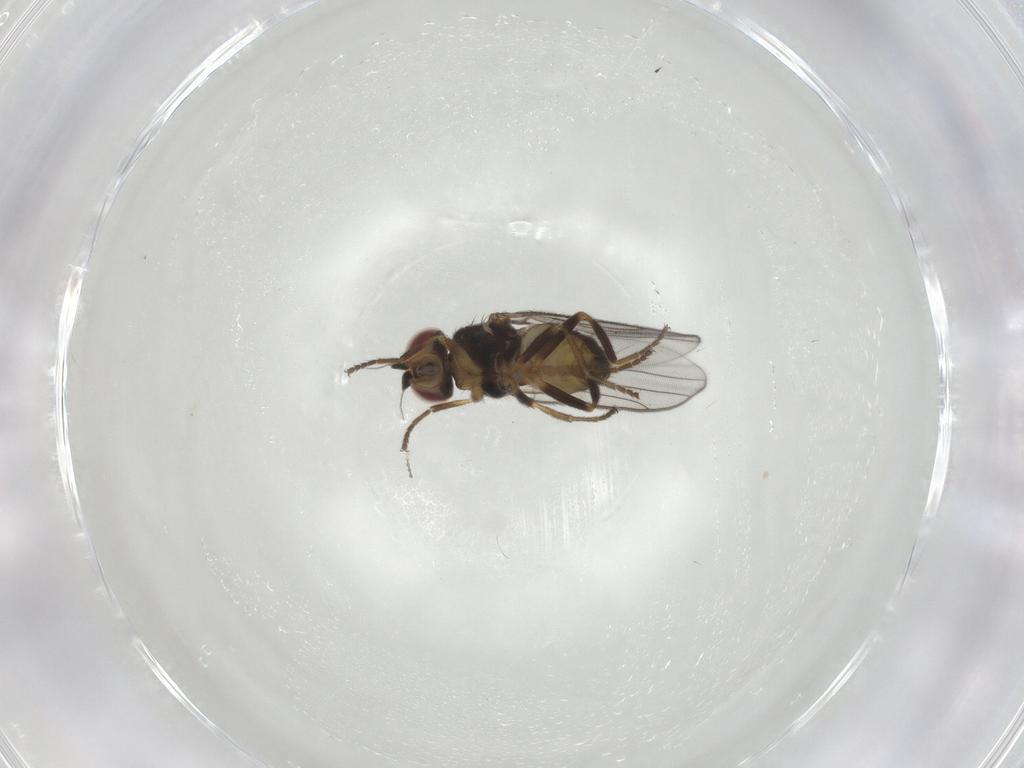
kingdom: Animalia
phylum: Arthropoda
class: Insecta
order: Diptera
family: Chloropidae
